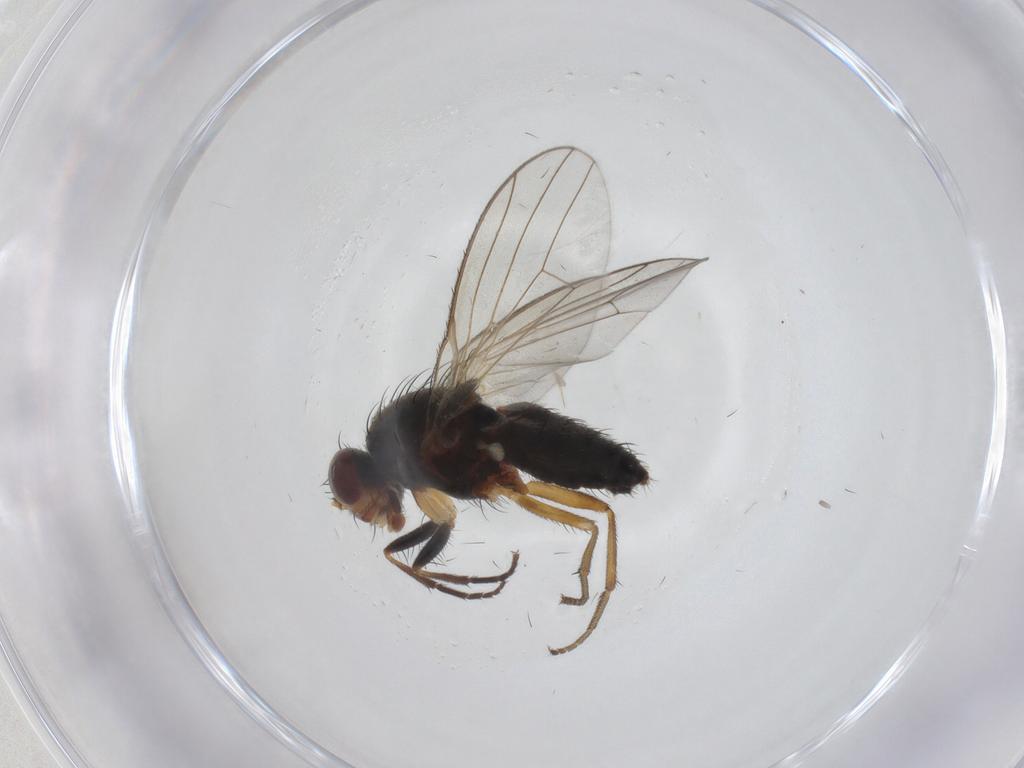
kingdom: Animalia
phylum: Arthropoda
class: Insecta
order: Diptera
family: Heleomyzidae
